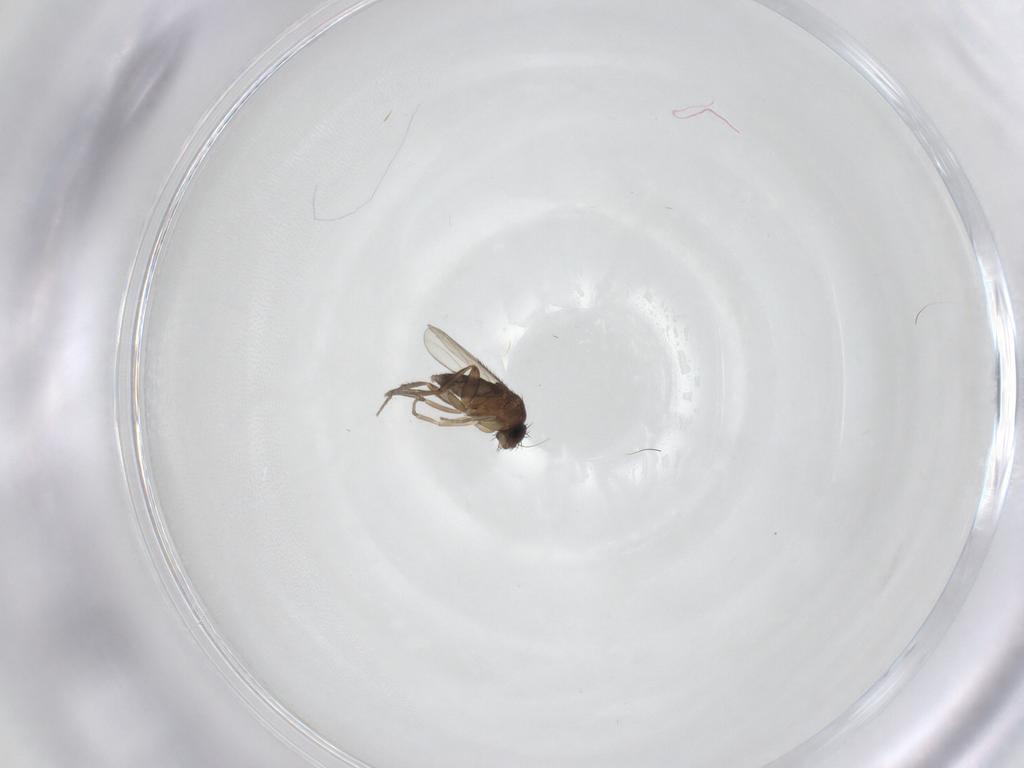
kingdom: Animalia
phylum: Arthropoda
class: Insecta
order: Diptera
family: Phoridae
